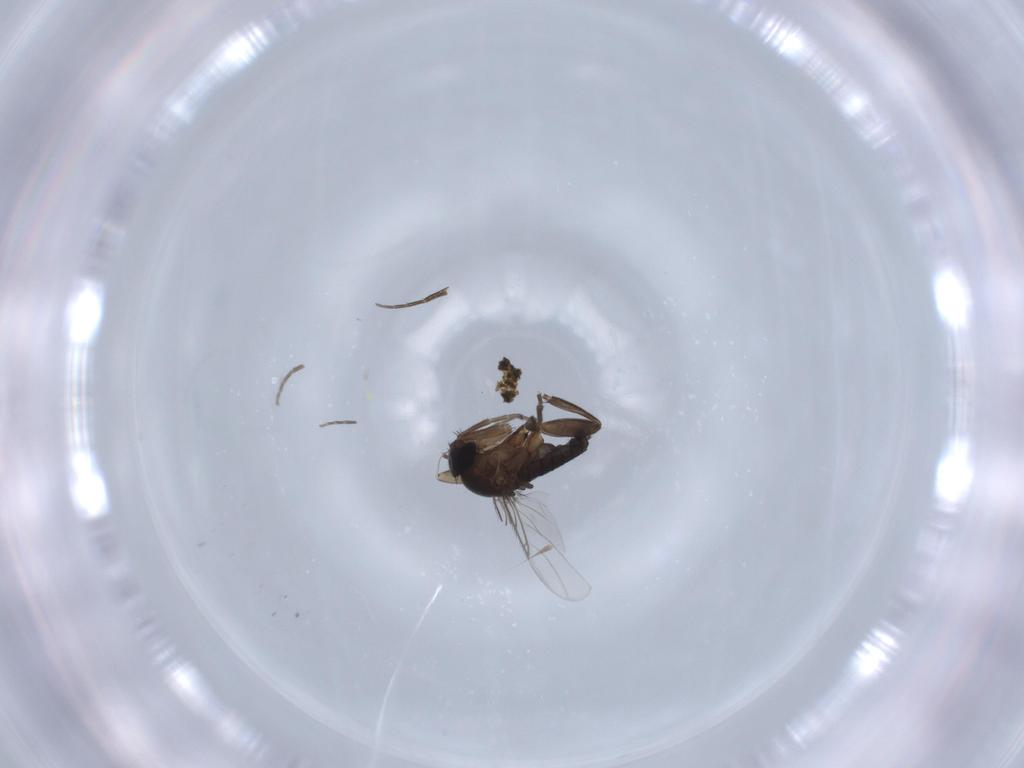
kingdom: Animalia
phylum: Arthropoda
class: Insecta
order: Diptera
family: Phoridae
